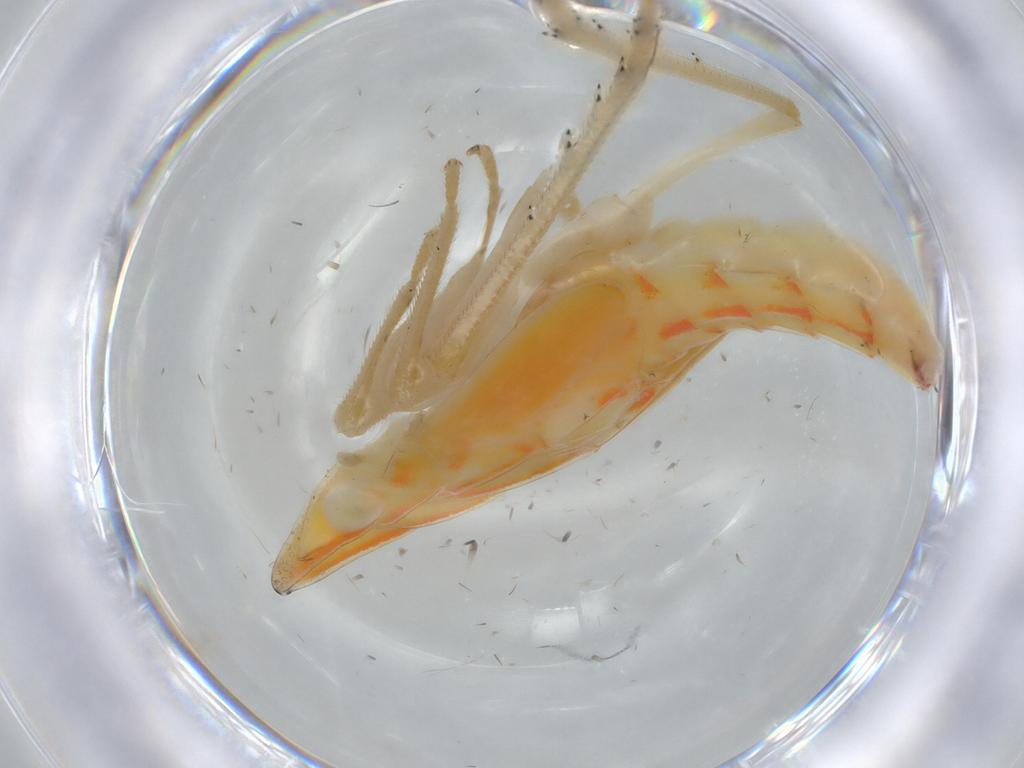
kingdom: Animalia
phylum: Arthropoda
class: Insecta
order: Hemiptera
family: Tropiduchidae
